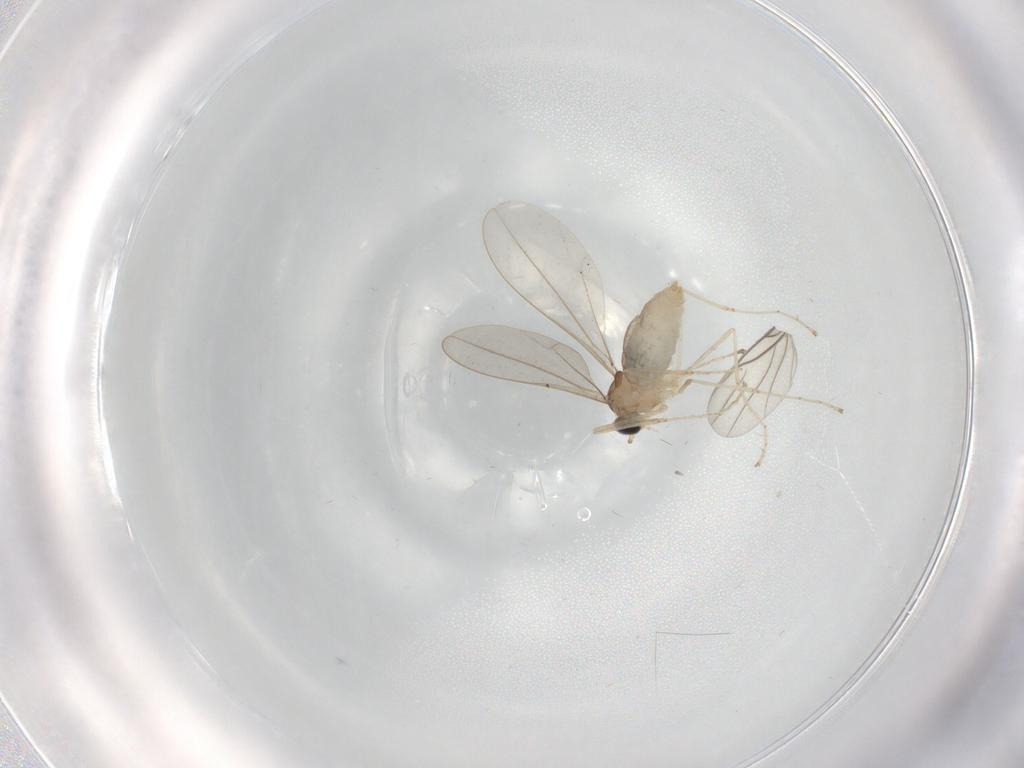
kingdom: Animalia
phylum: Arthropoda
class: Insecta
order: Diptera
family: Cecidomyiidae
